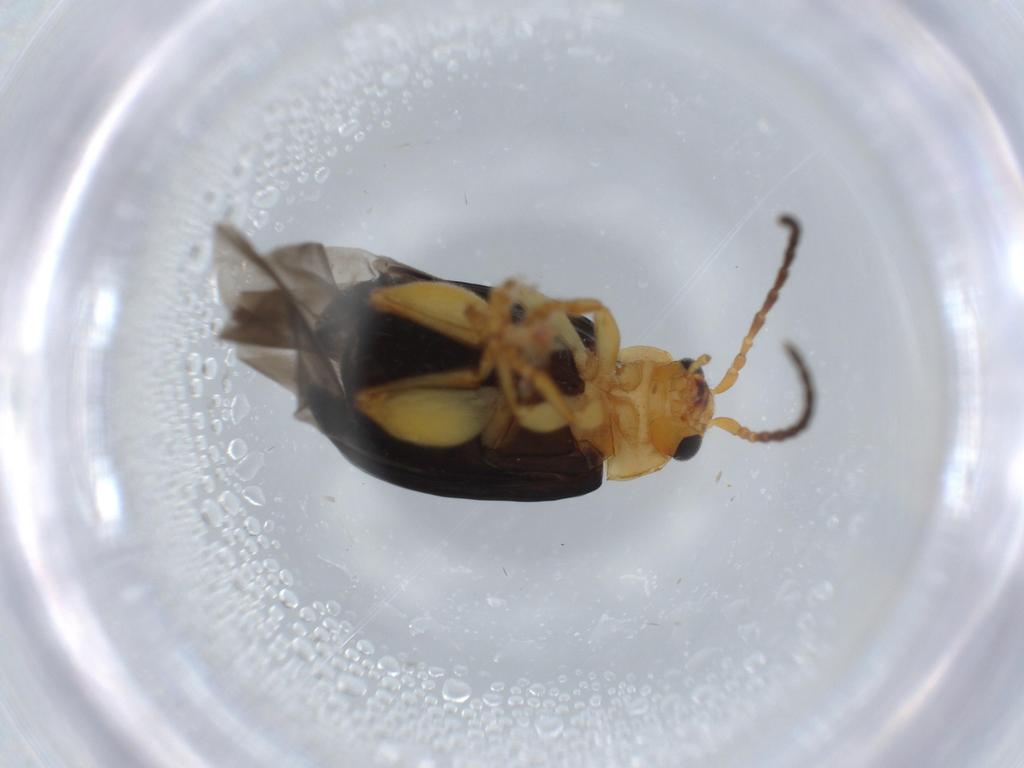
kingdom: Animalia
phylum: Arthropoda
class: Insecta
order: Coleoptera
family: Chrysomelidae
